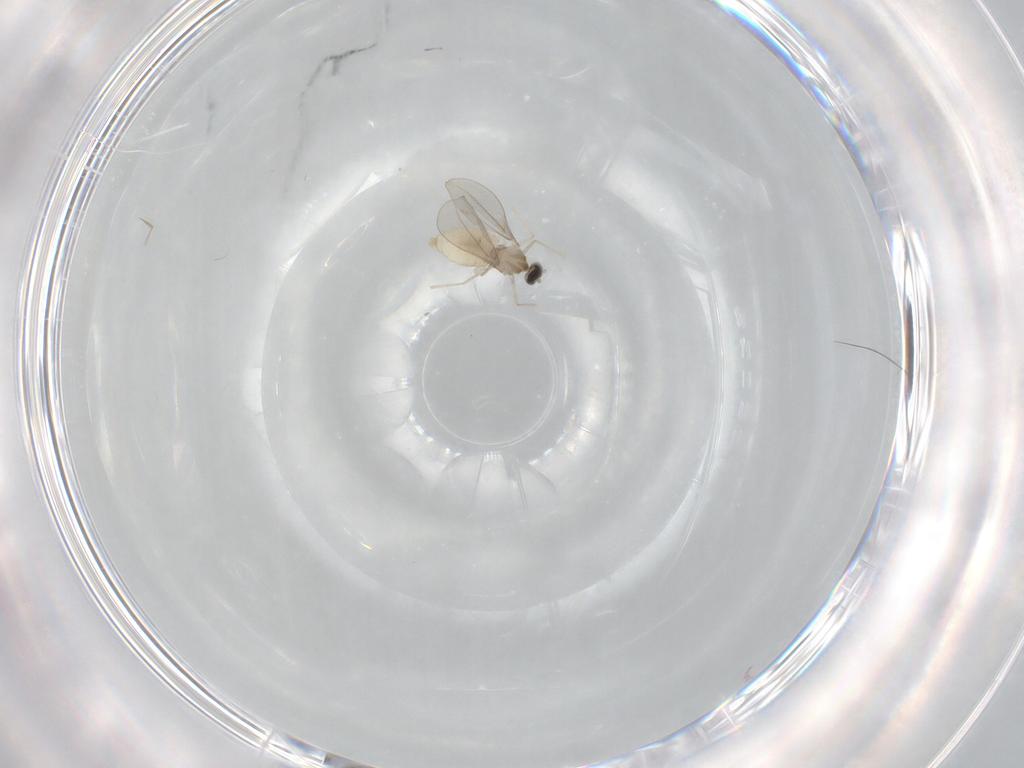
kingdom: Animalia
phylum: Arthropoda
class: Insecta
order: Diptera
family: Cecidomyiidae
